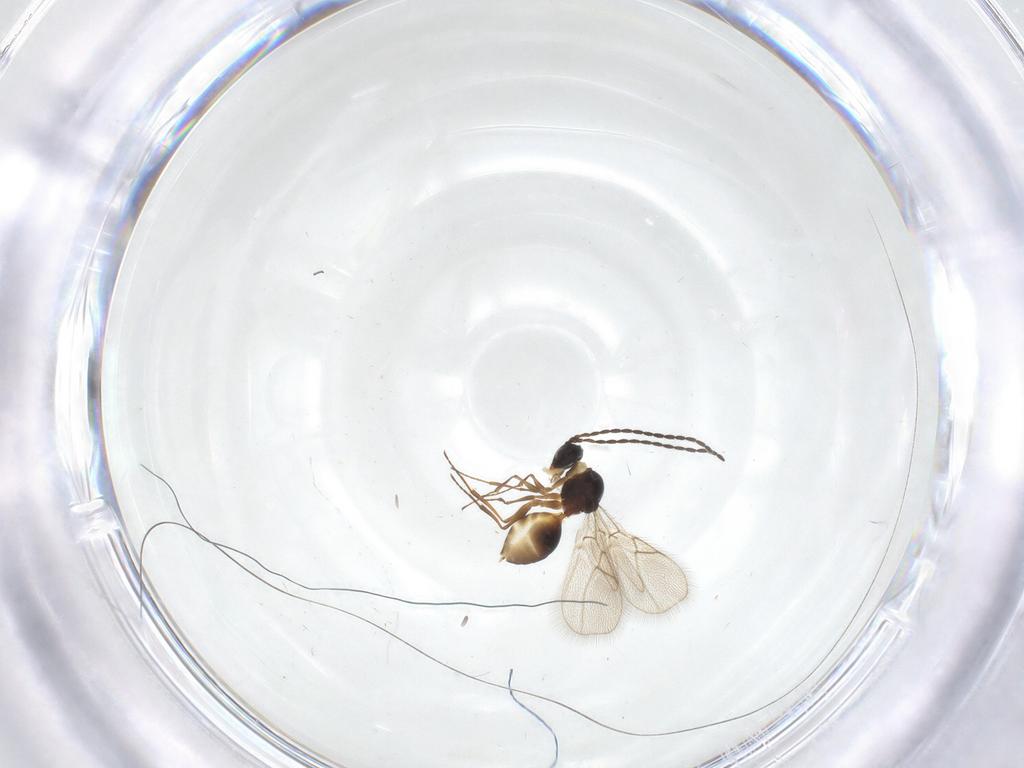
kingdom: Animalia
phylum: Arthropoda
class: Insecta
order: Hymenoptera
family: Figitidae
